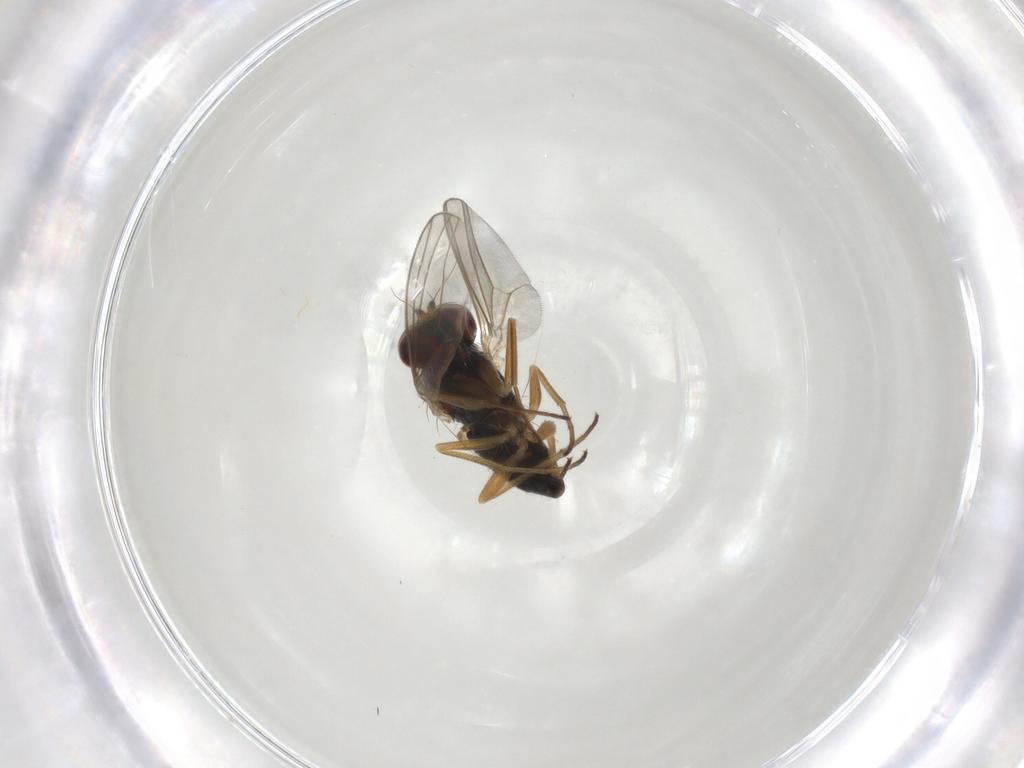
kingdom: Animalia
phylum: Arthropoda
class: Insecta
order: Diptera
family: Dolichopodidae
